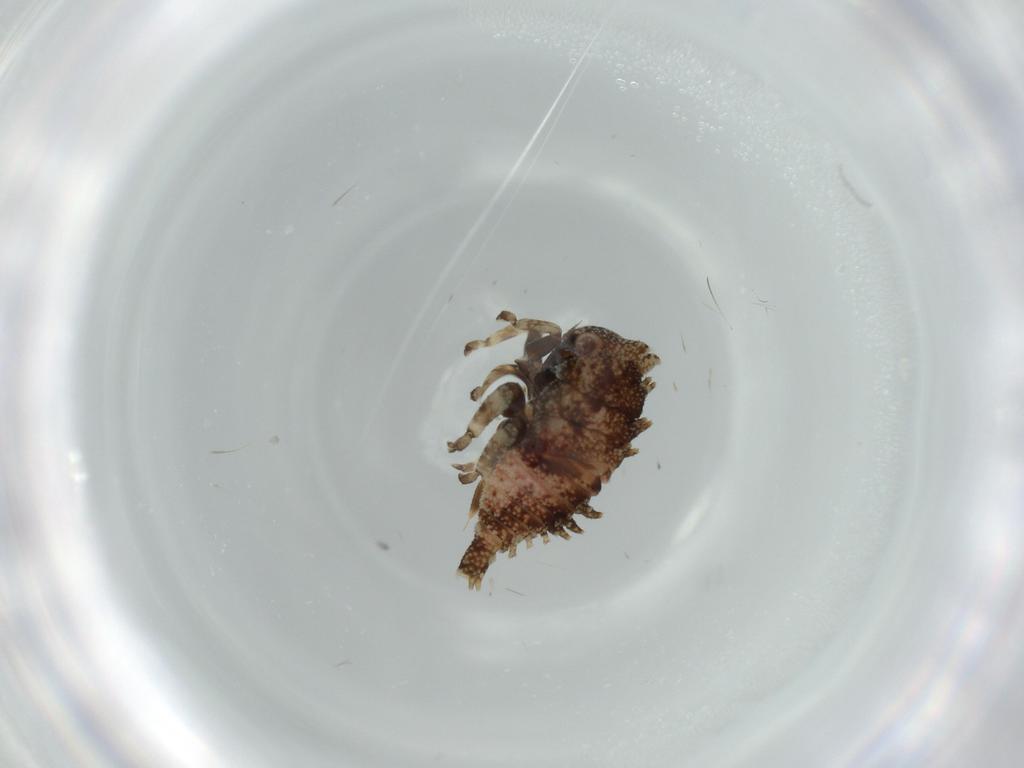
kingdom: Animalia
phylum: Arthropoda
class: Insecta
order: Hemiptera
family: Membracidae
